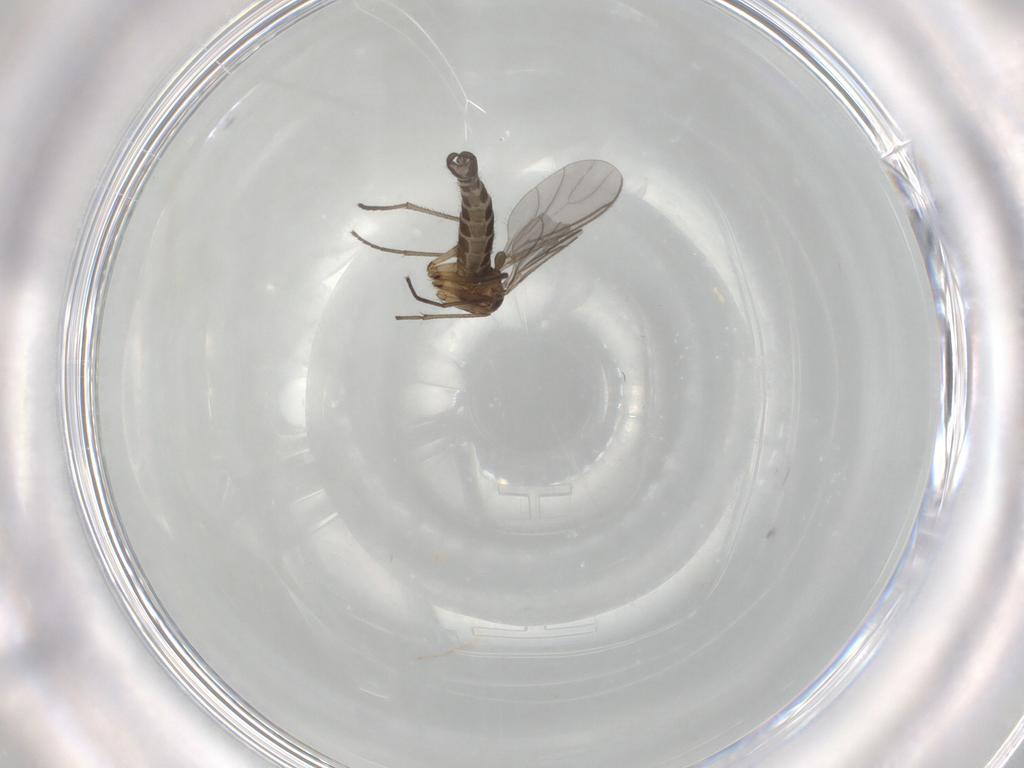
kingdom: Animalia
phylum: Arthropoda
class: Insecta
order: Diptera
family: Sciaridae
